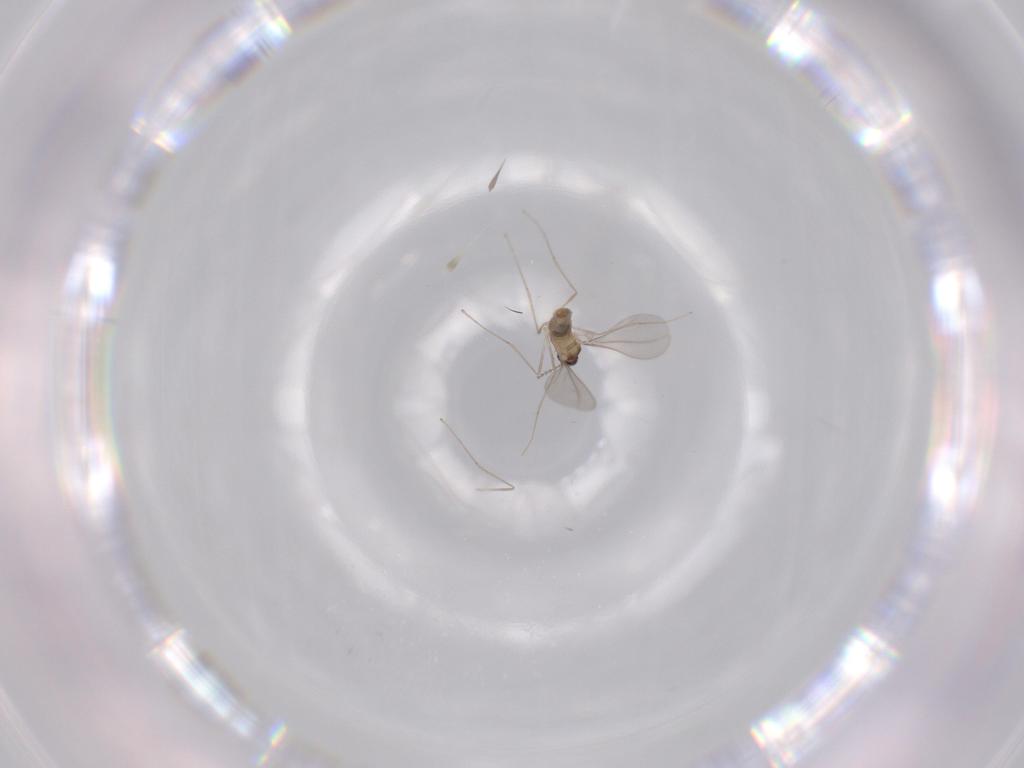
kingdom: Animalia
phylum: Arthropoda
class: Insecta
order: Diptera
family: Cecidomyiidae
